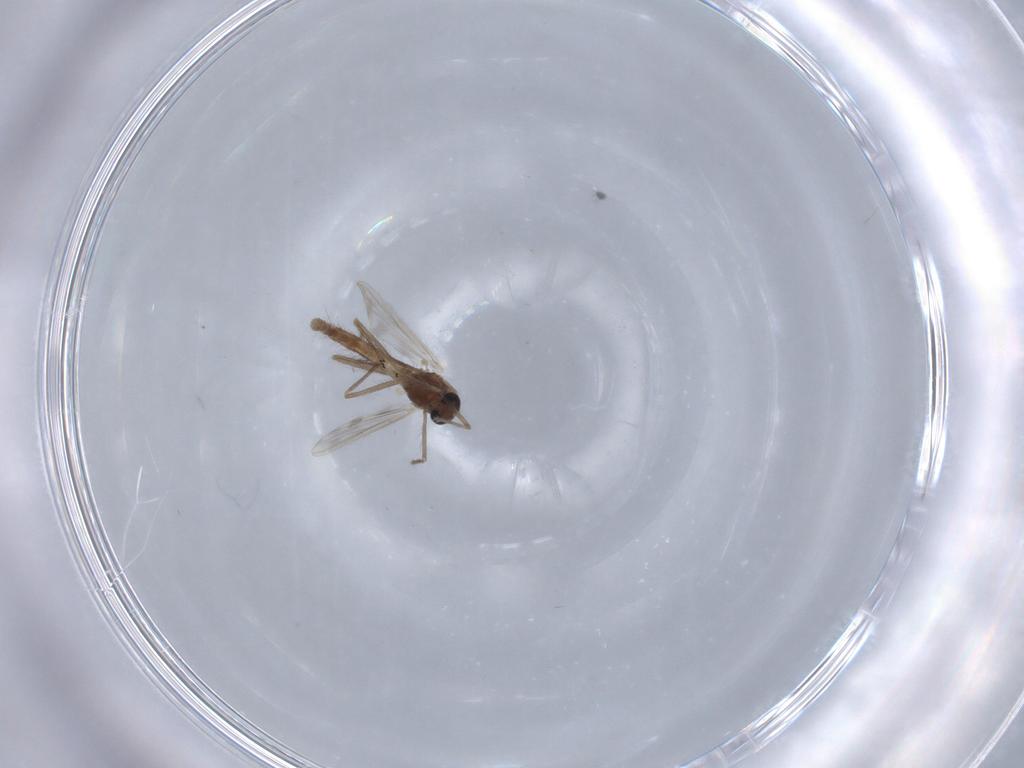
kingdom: Animalia
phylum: Arthropoda
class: Insecta
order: Diptera
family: Chironomidae
